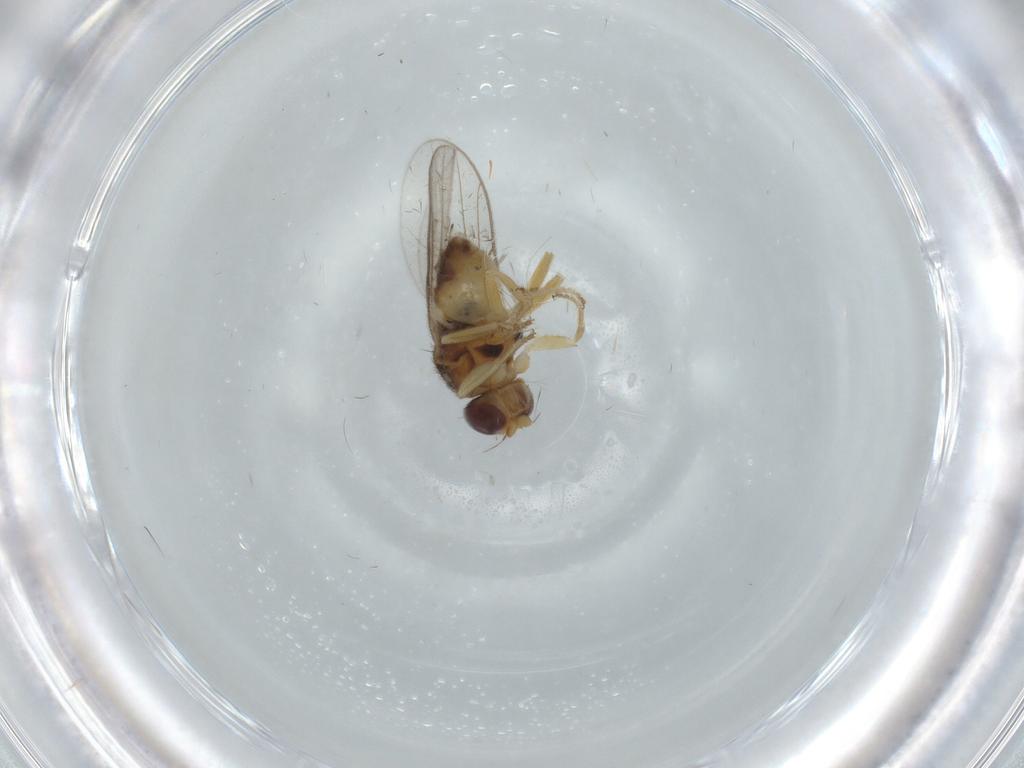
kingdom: Animalia
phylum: Arthropoda
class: Insecta
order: Diptera
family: Chloropidae
